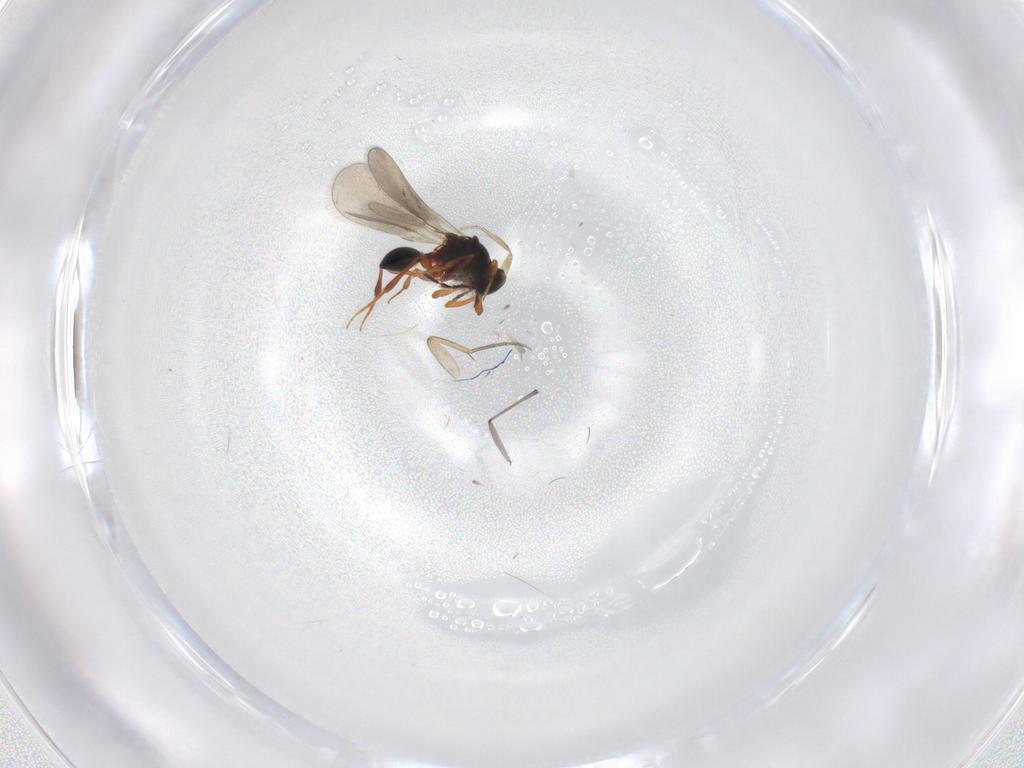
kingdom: Animalia
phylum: Arthropoda
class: Insecta
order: Hymenoptera
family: Platygastridae
